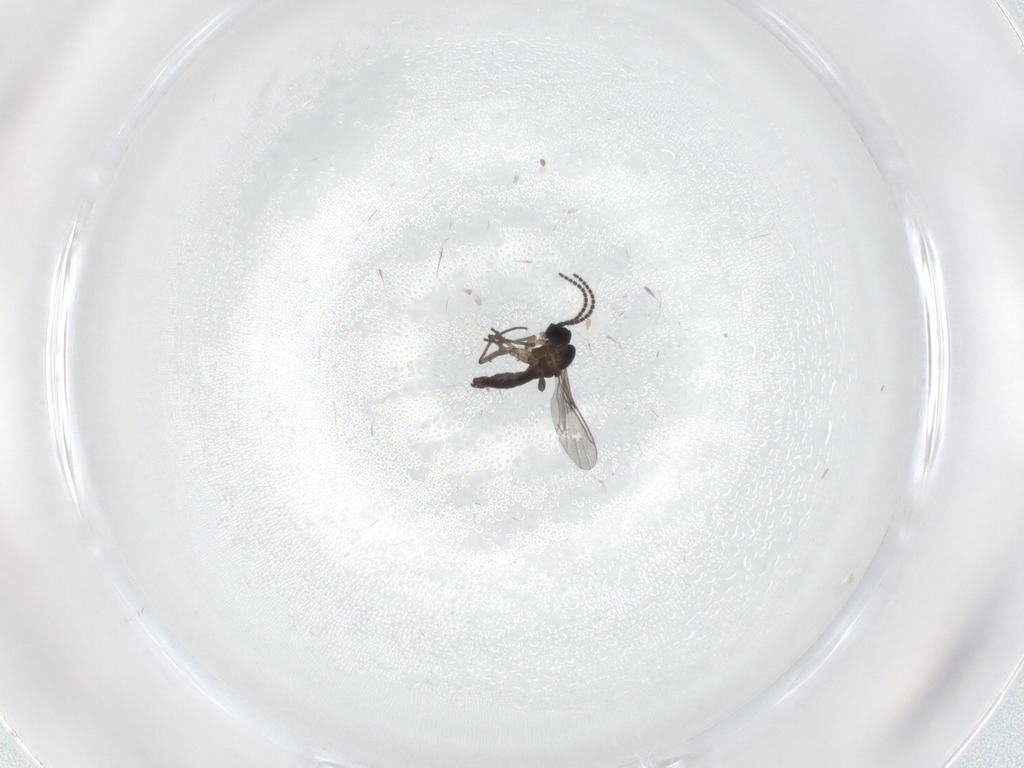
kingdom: Animalia
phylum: Arthropoda
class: Insecta
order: Diptera
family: Sciaridae
